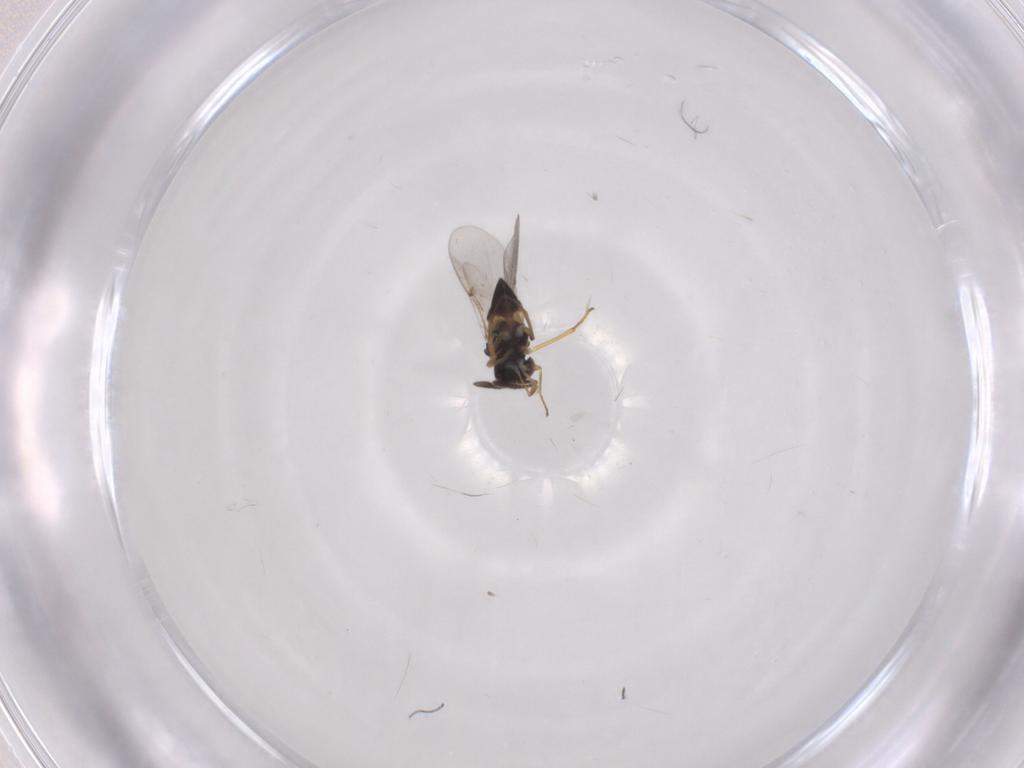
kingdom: Animalia
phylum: Arthropoda
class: Insecta
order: Hymenoptera
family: Encyrtidae
